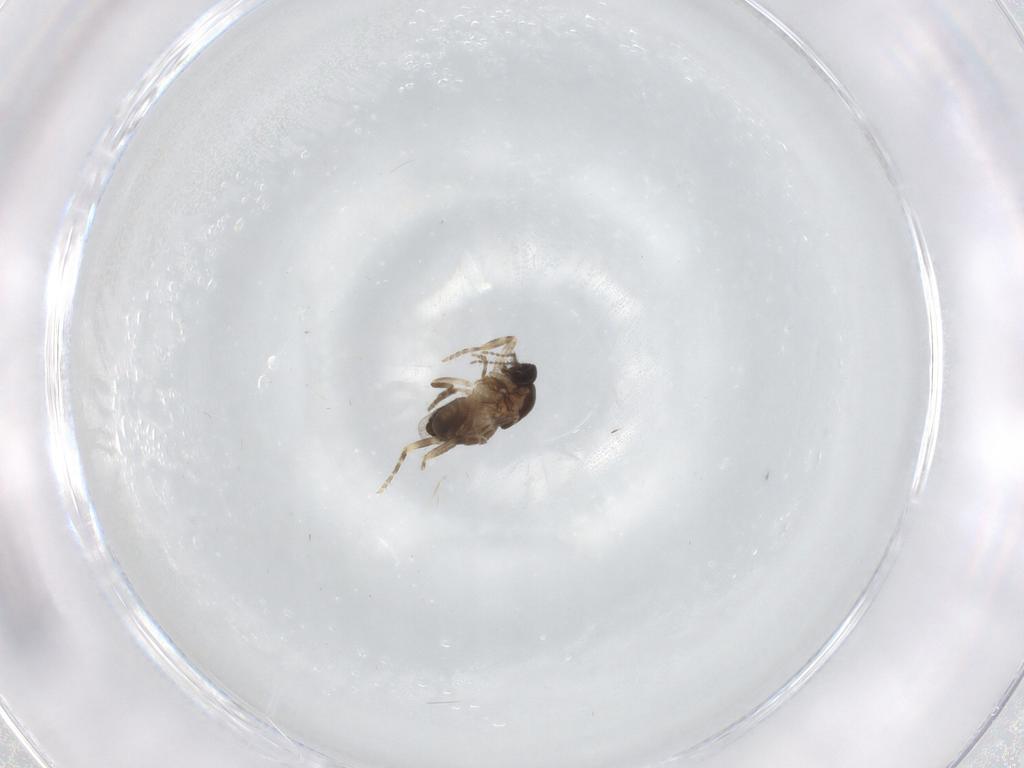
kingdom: Animalia
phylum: Arthropoda
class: Insecta
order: Diptera
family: Ceratopogonidae
